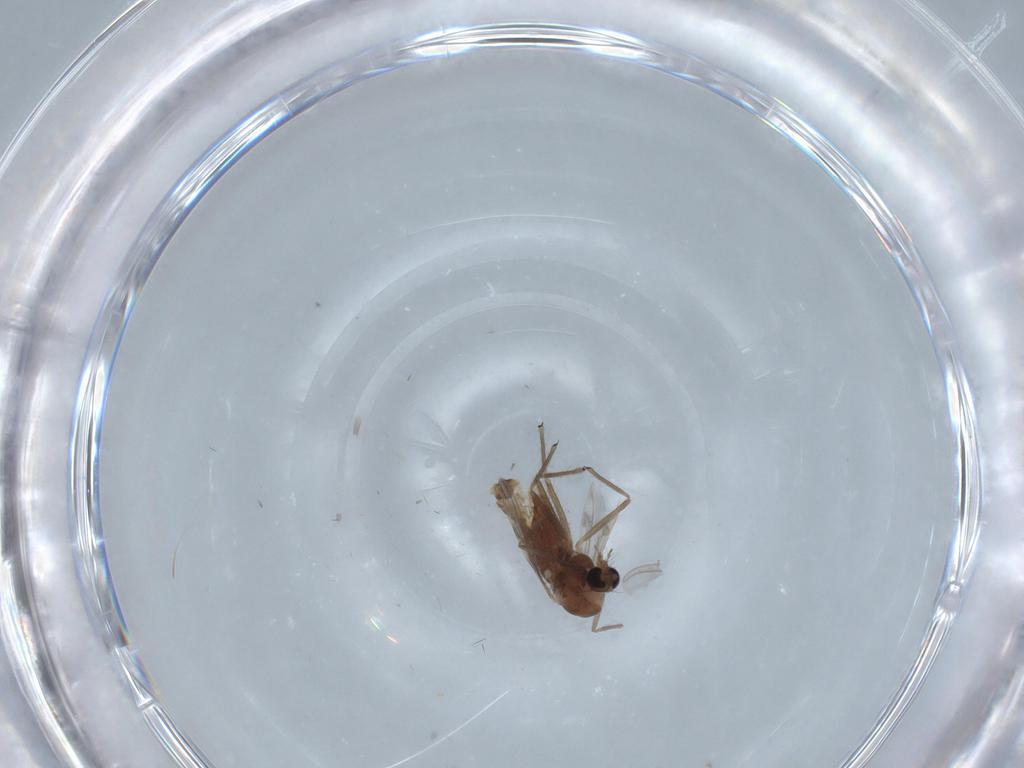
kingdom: Animalia
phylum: Arthropoda
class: Insecta
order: Diptera
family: Chironomidae
